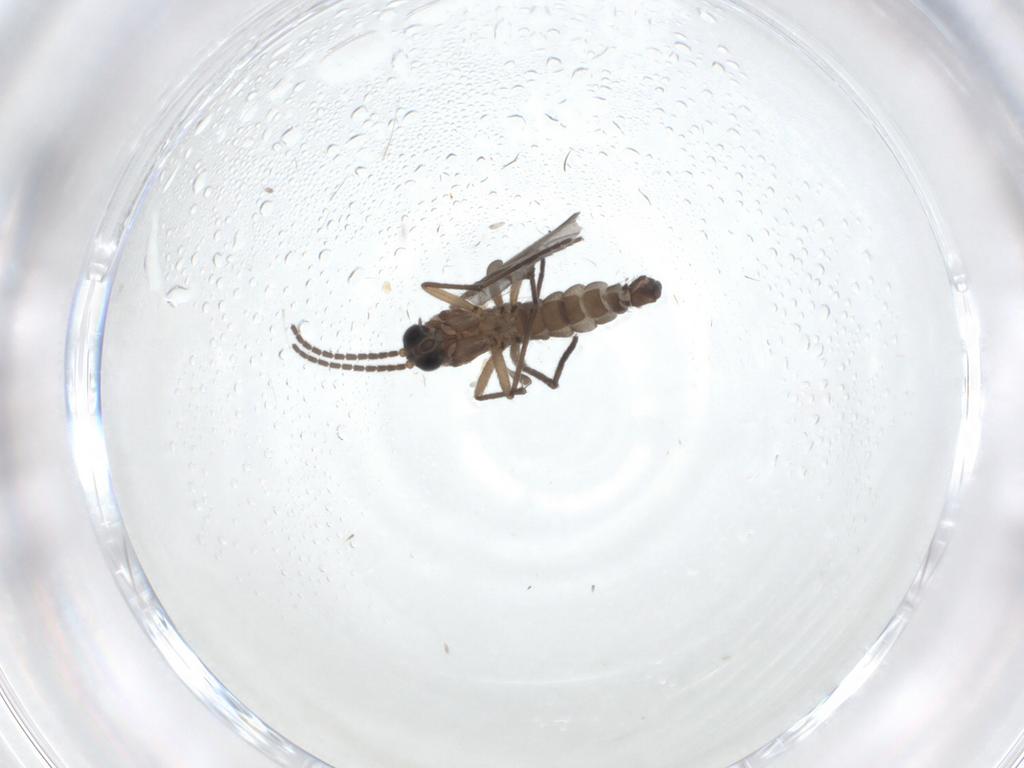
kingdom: Animalia
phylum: Arthropoda
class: Insecta
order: Diptera
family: Sciaridae
